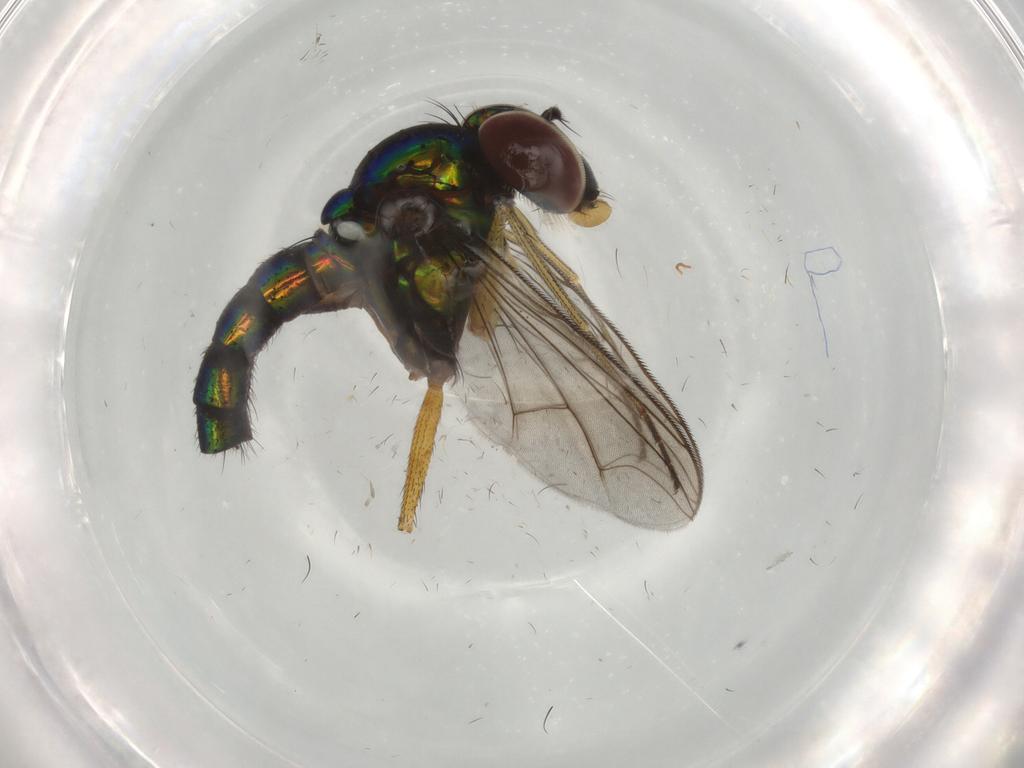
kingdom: Animalia
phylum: Arthropoda
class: Insecta
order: Diptera
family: Dolichopodidae
